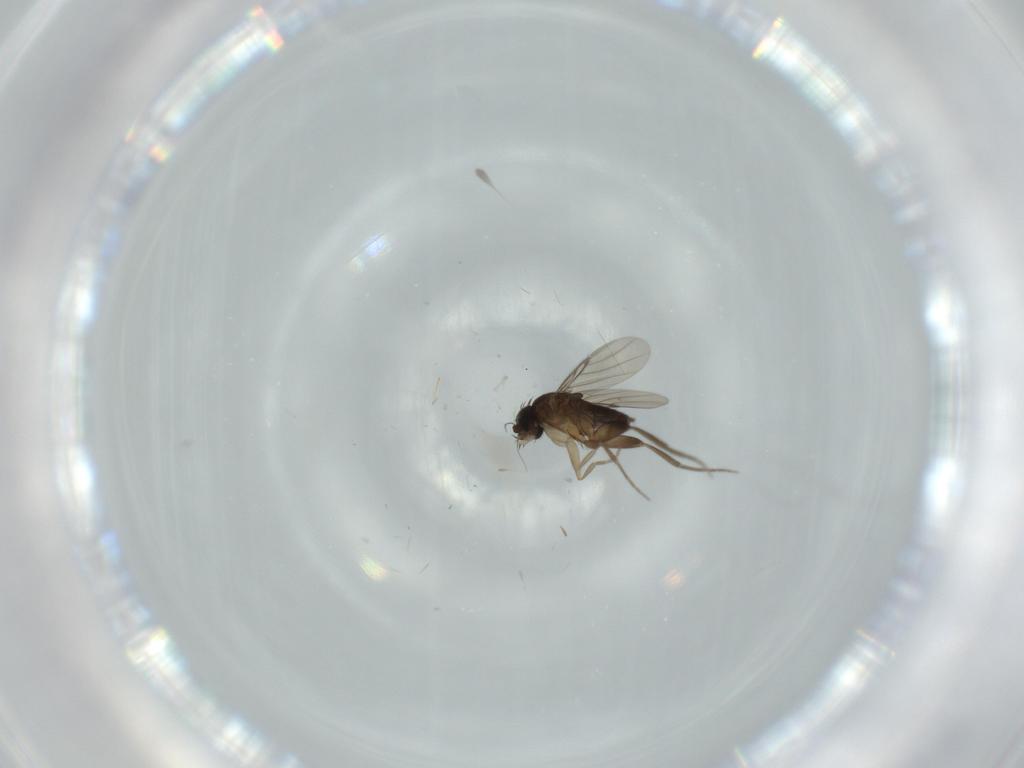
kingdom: Animalia
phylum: Arthropoda
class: Insecta
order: Diptera
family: Phoridae
